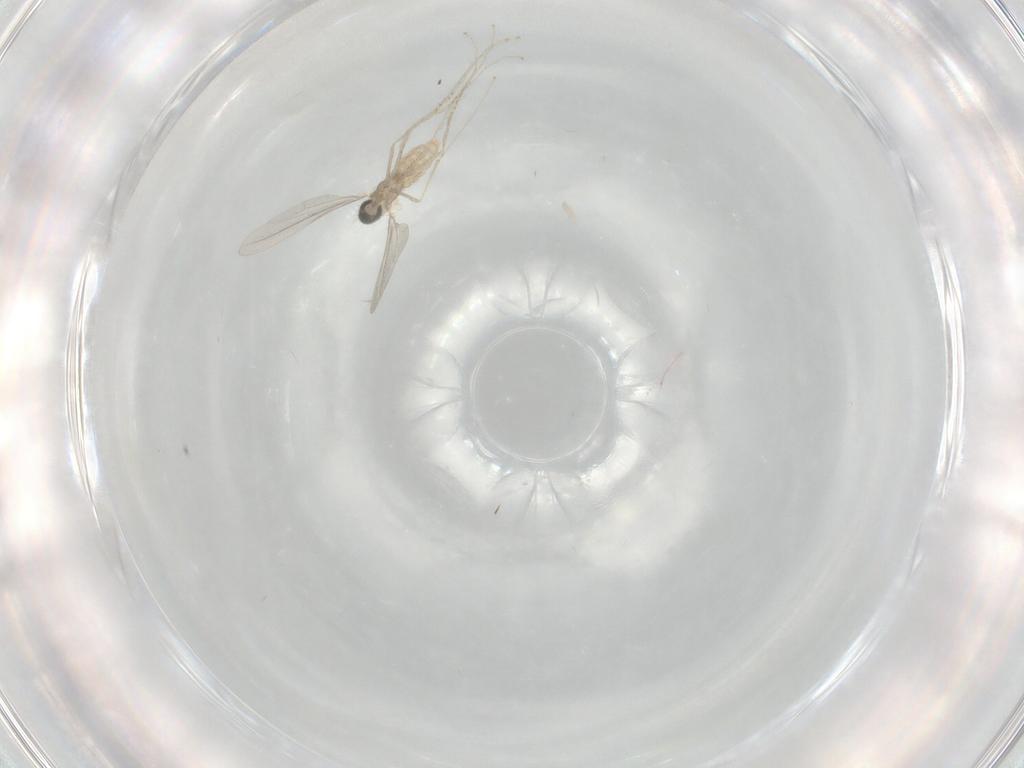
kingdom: Animalia
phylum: Arthropoda
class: Insecta
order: Diptera
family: Cecidomyiidae
